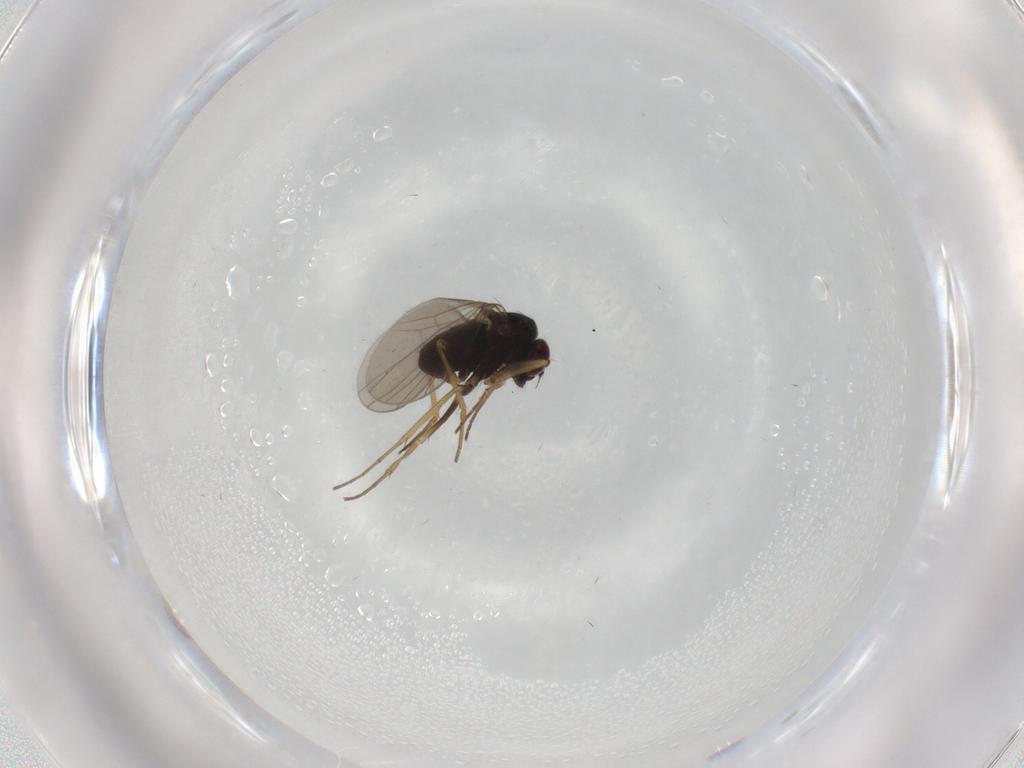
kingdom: Animalia
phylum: Arthropoda
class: Insecta
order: Diptera
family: Dolichopodidae
